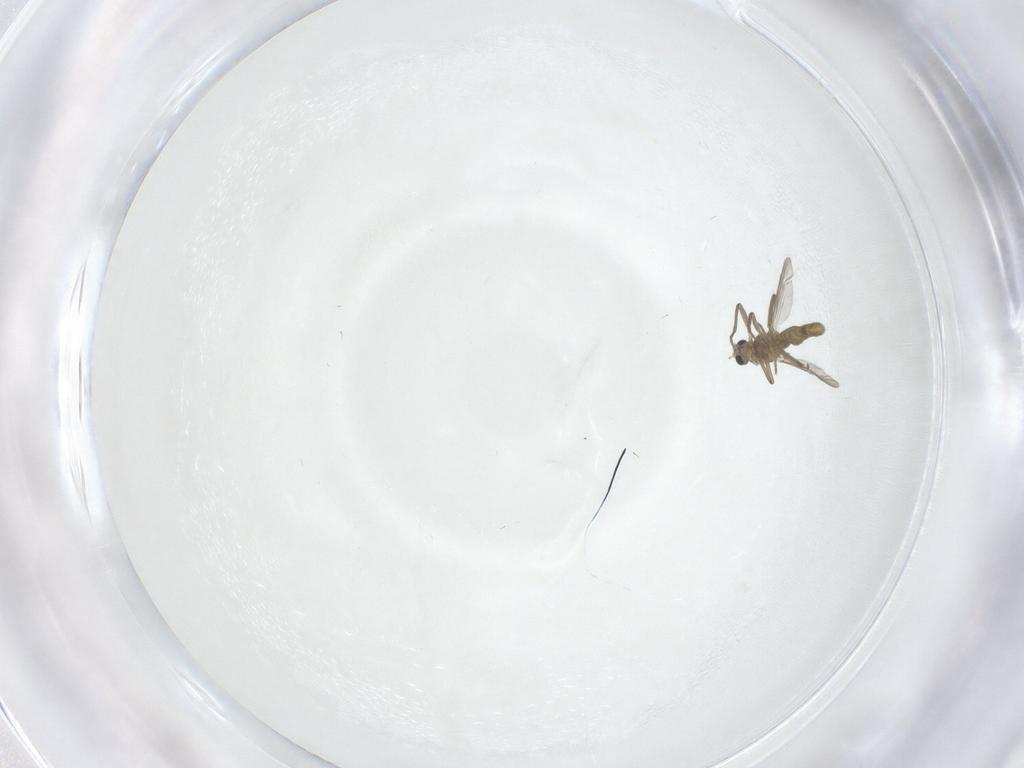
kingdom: Animalia
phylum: Arthropoda
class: Insecta
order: Diptera
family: Chironomidae
